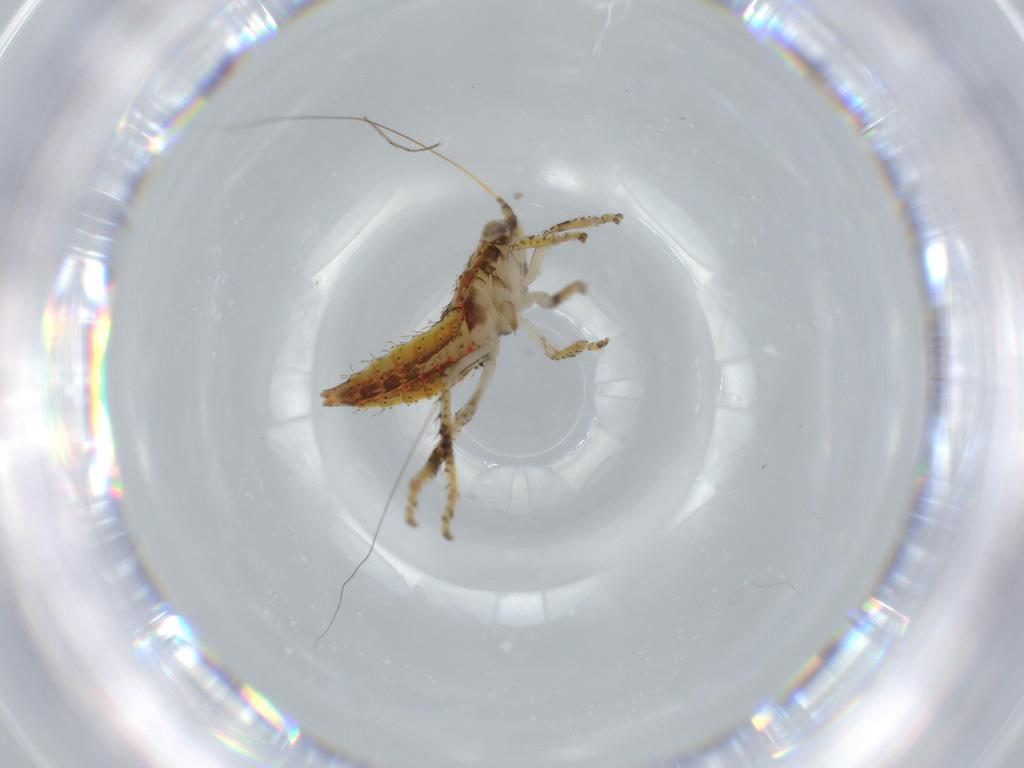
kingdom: Animalia
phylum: Arthropoda
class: Insecta
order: Hemiptera
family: Cicadellidae
